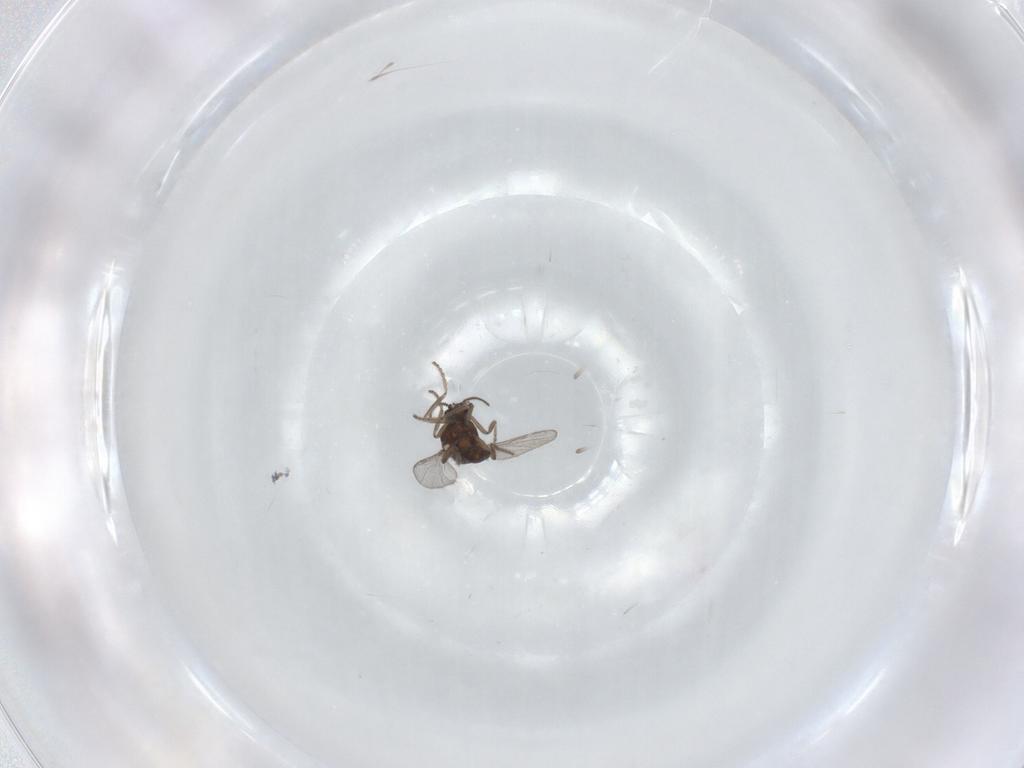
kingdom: Animalia
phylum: Arthropoda
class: Insecta
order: Diptera
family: Ceratopogonidae
